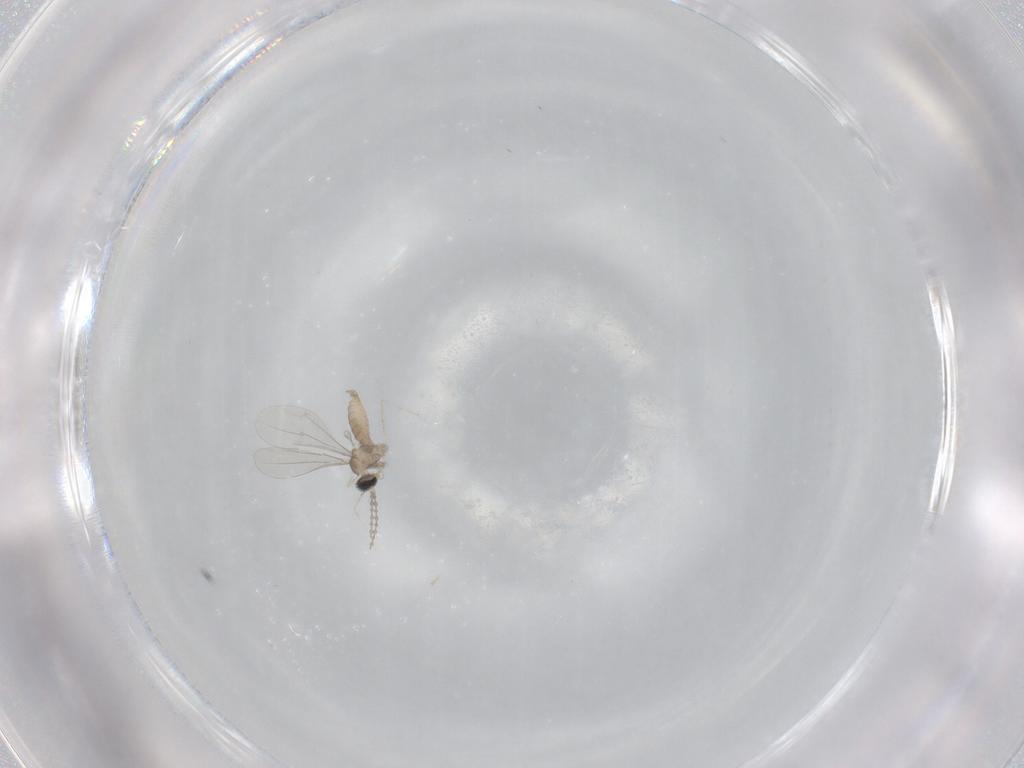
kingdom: Animalia
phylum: Arthropoda
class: Insecta
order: Diptera
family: Cecidomyiidae
